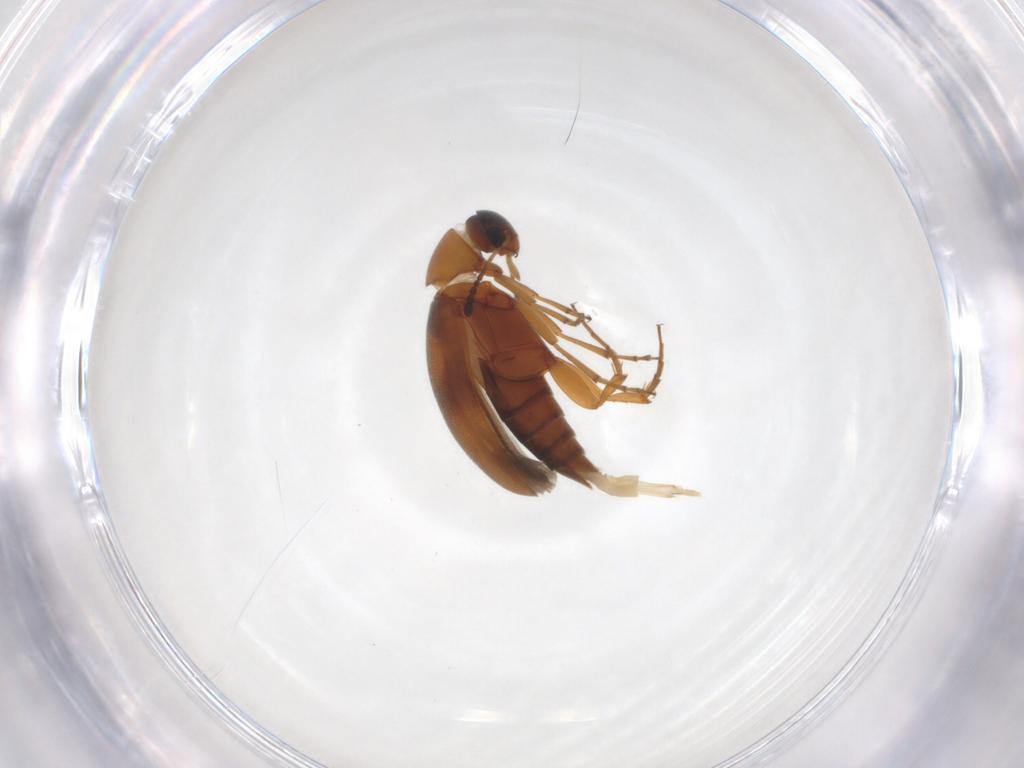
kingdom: Animalia
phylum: Arthropoda
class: Insecta
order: Coleoptera
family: Scraptiidae
